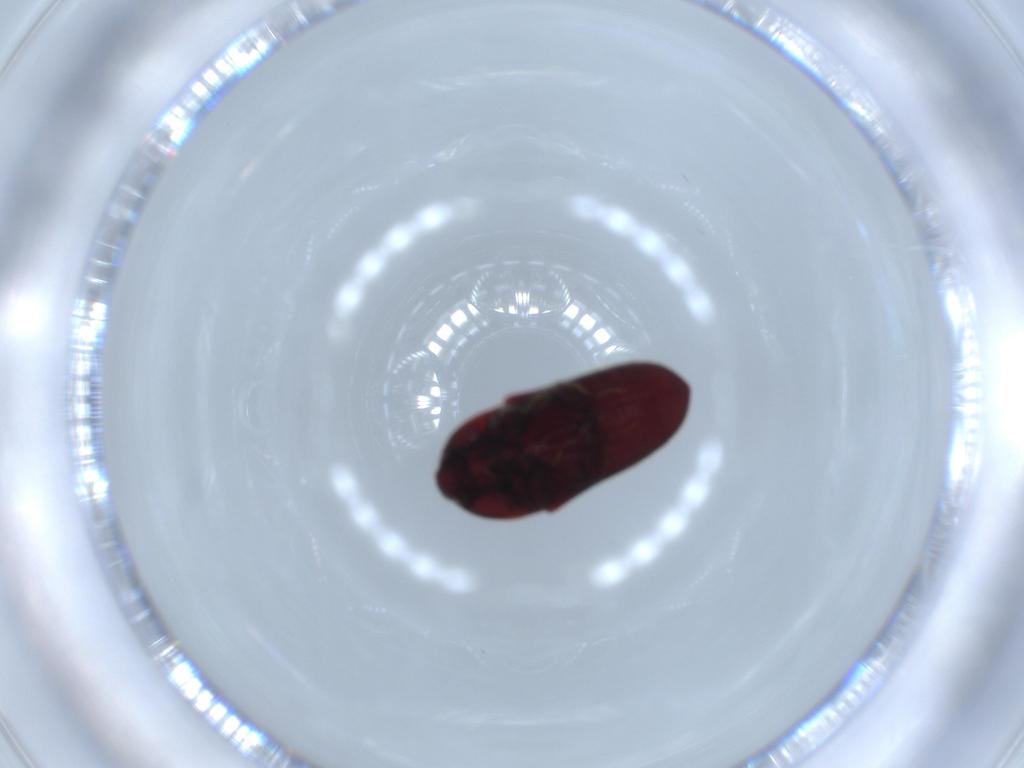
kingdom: Animalia
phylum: Arthropoda
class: Insecta
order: Coleoptera
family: Throscidae
